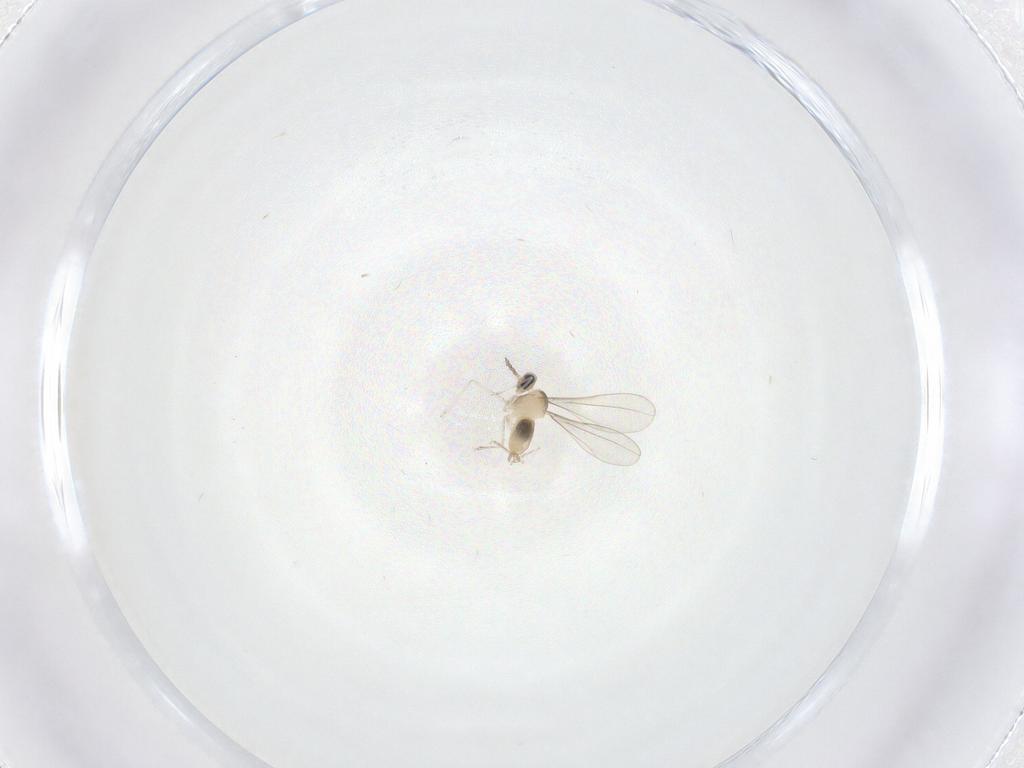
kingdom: Animalia
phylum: Arthropoda
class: Insecta
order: Diptera
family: Cecidomyiidae
